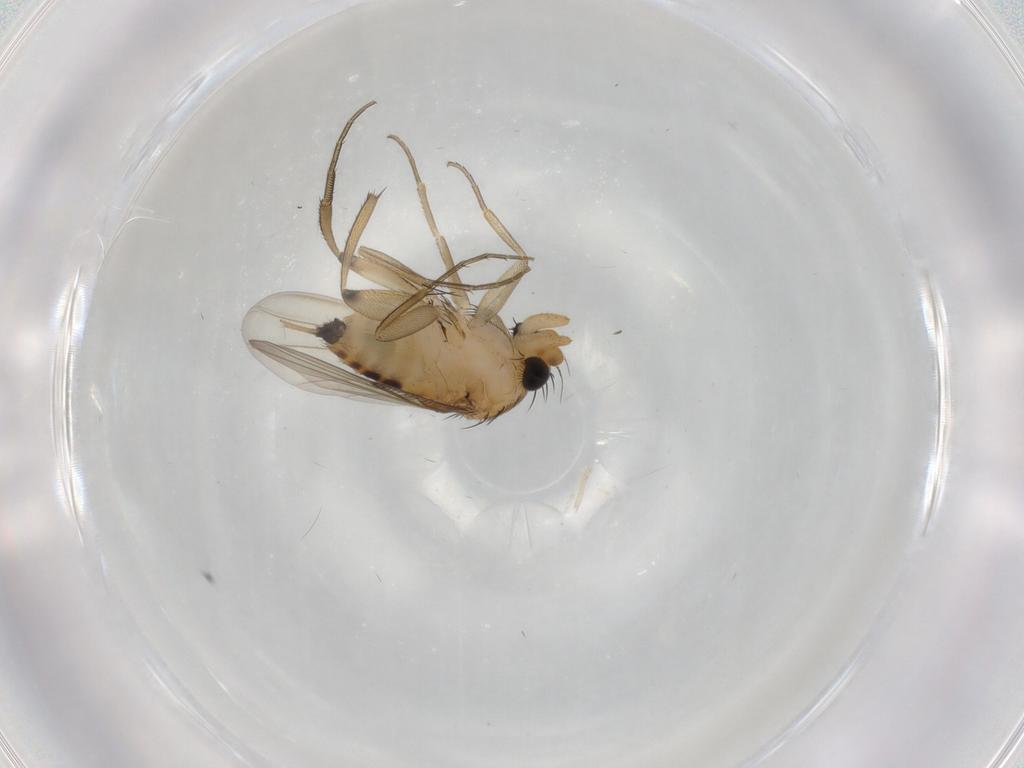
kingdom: Animalia
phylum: Arthropoda
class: Insecta
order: Diptera
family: Phoridae
